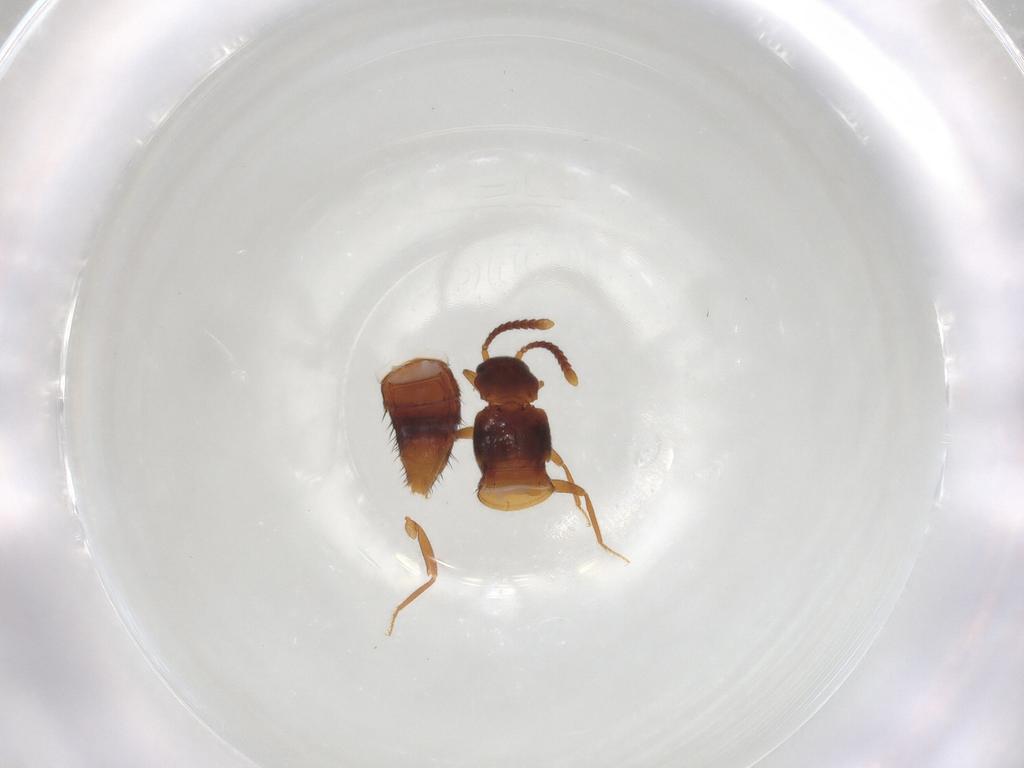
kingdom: Animalia
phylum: Arthropoda
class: Insecta
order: Coleoptera
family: Staphylinidae
